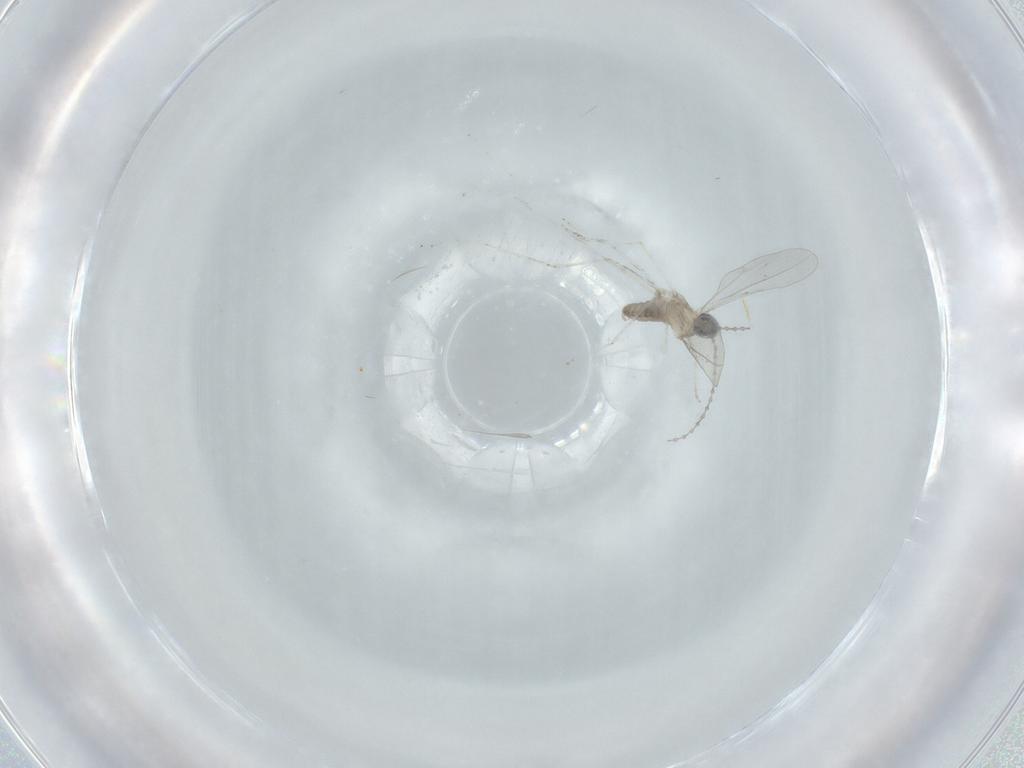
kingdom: Animalia
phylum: Arthropoda
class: Insecta
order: Diptera
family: Cecidomyiidae
